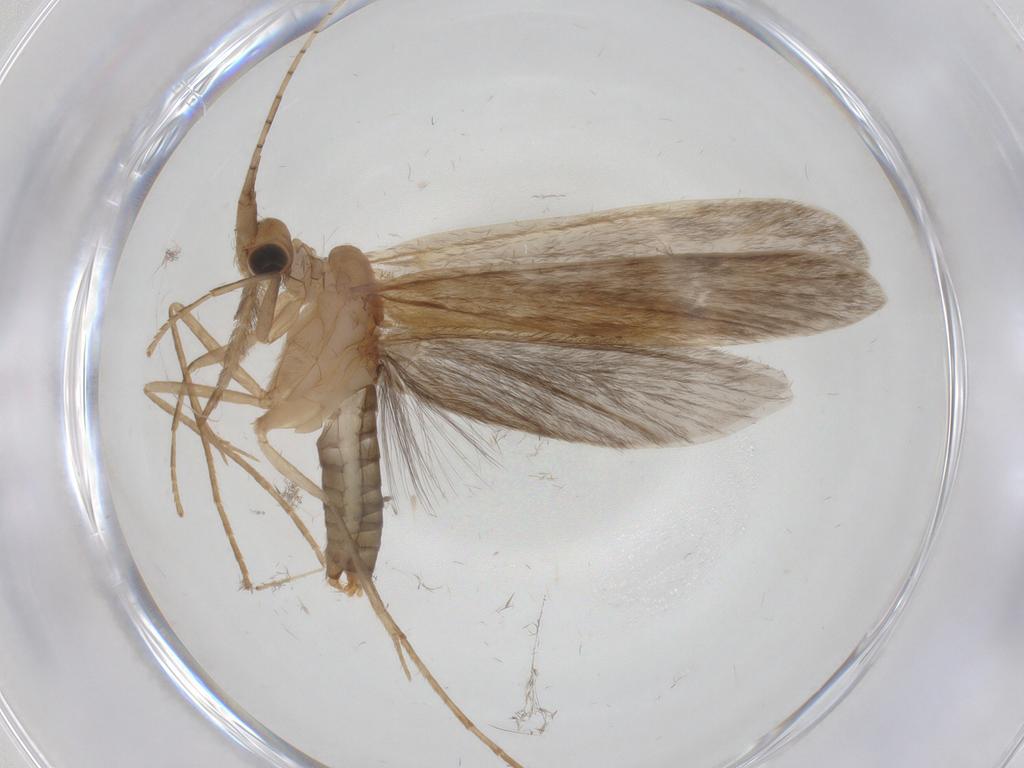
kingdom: Animalia
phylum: Arthropoda
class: Insecta
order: Trichoptera
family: Leptoceridae
